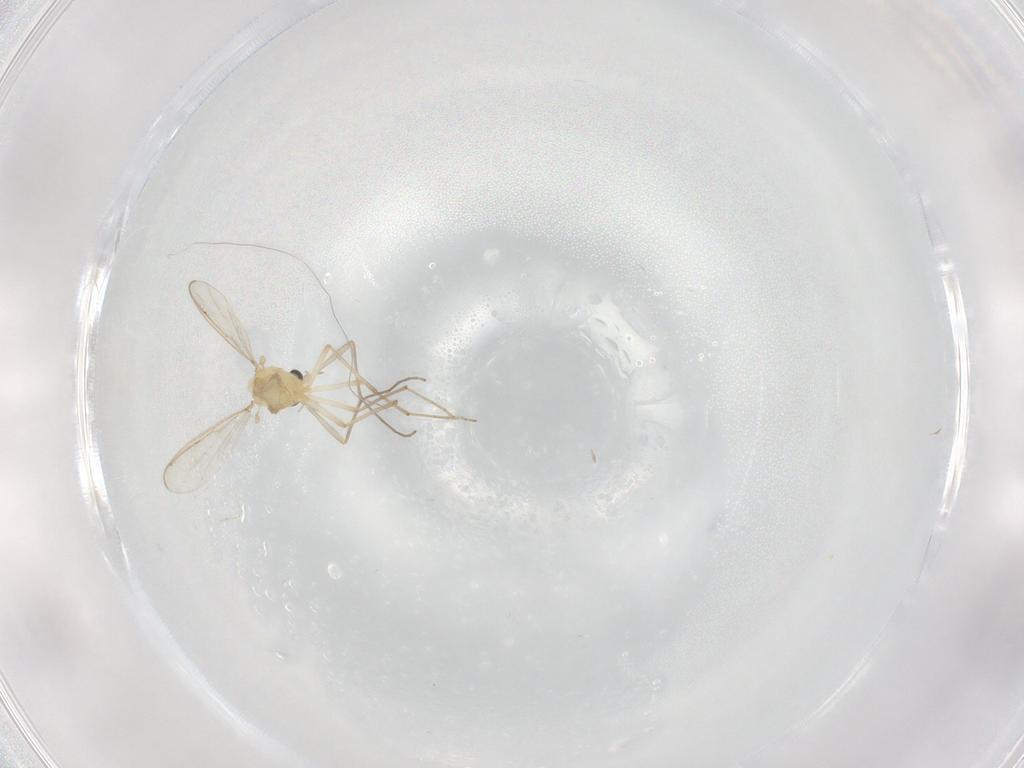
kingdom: Animalia
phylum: Arthropoda
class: Insecta
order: Diptera
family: Chironomidae
